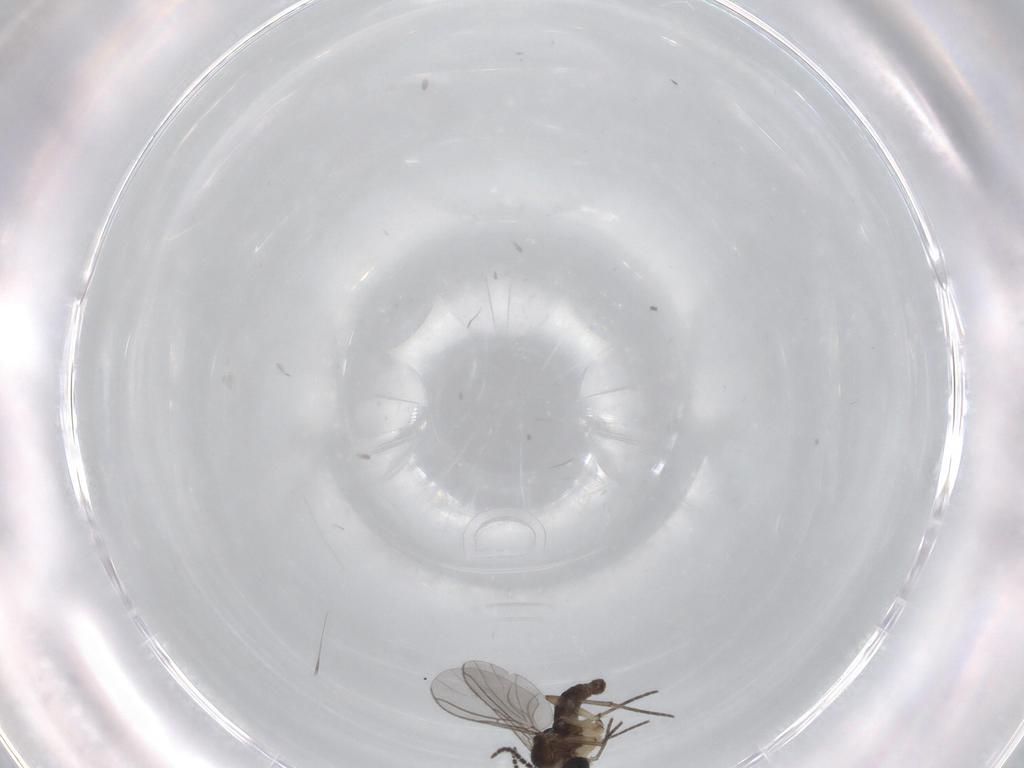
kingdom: Animalia
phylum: Arthropoda
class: Insecta
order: Diptera
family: Sciaridae
